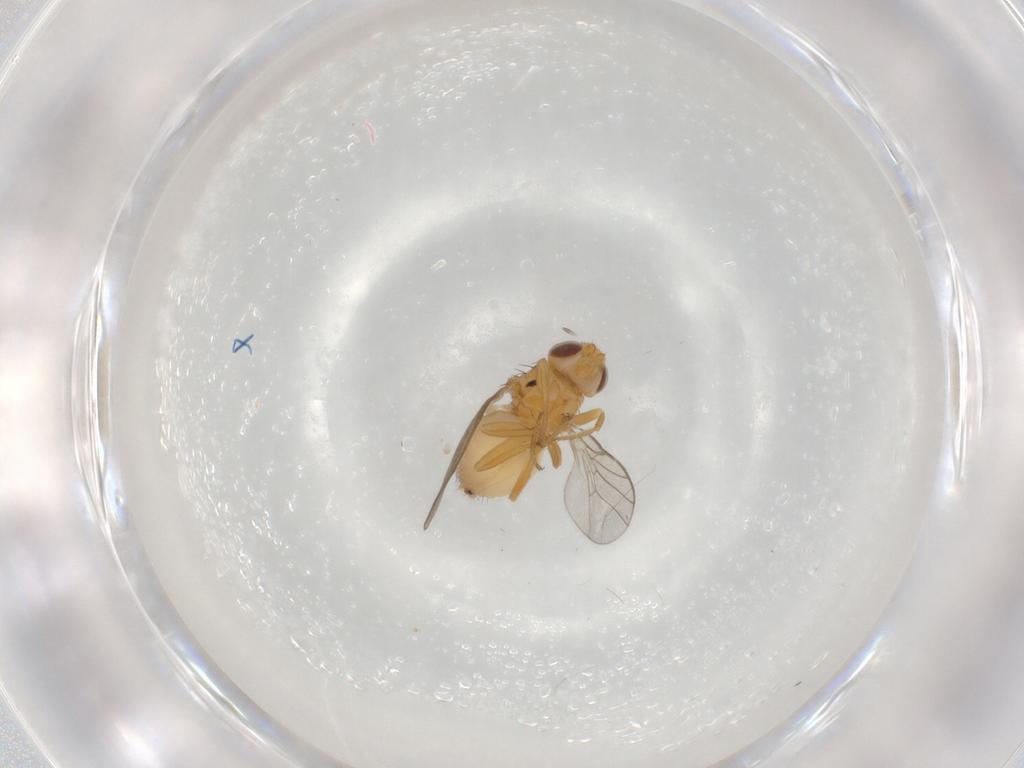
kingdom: Animalia
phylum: Arthropoda
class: Insecta
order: Diptera
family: Chloropidae
